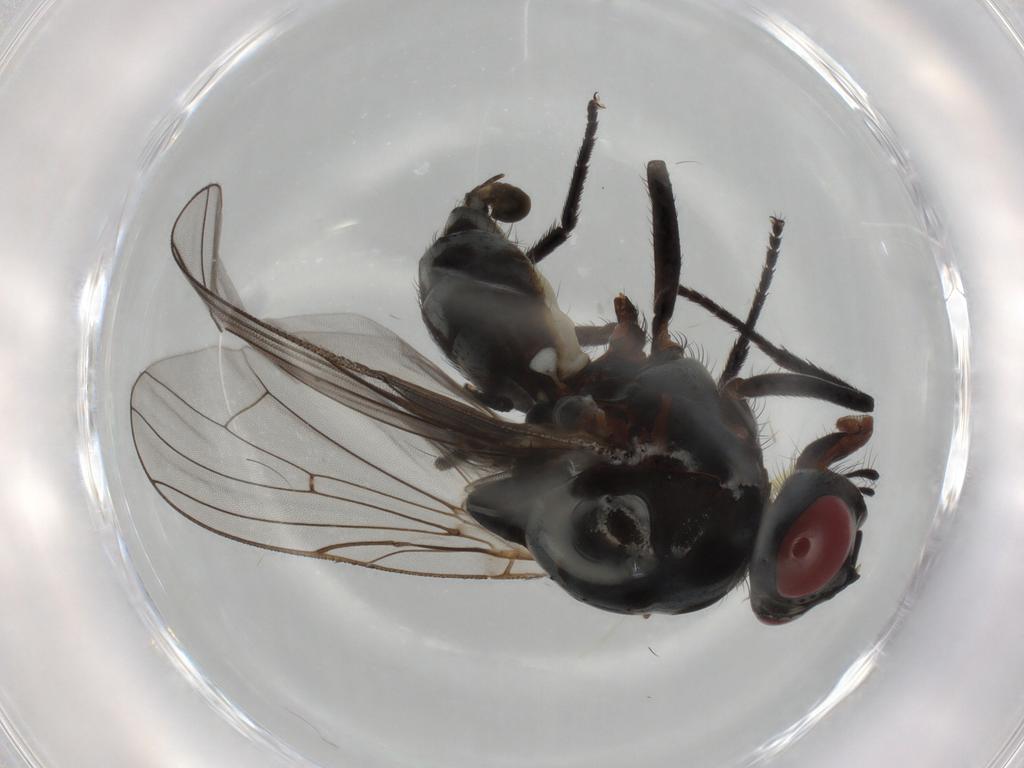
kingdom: Animalia
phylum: Arthropoda
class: Insecta
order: Diptera
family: Anthomyiidae
